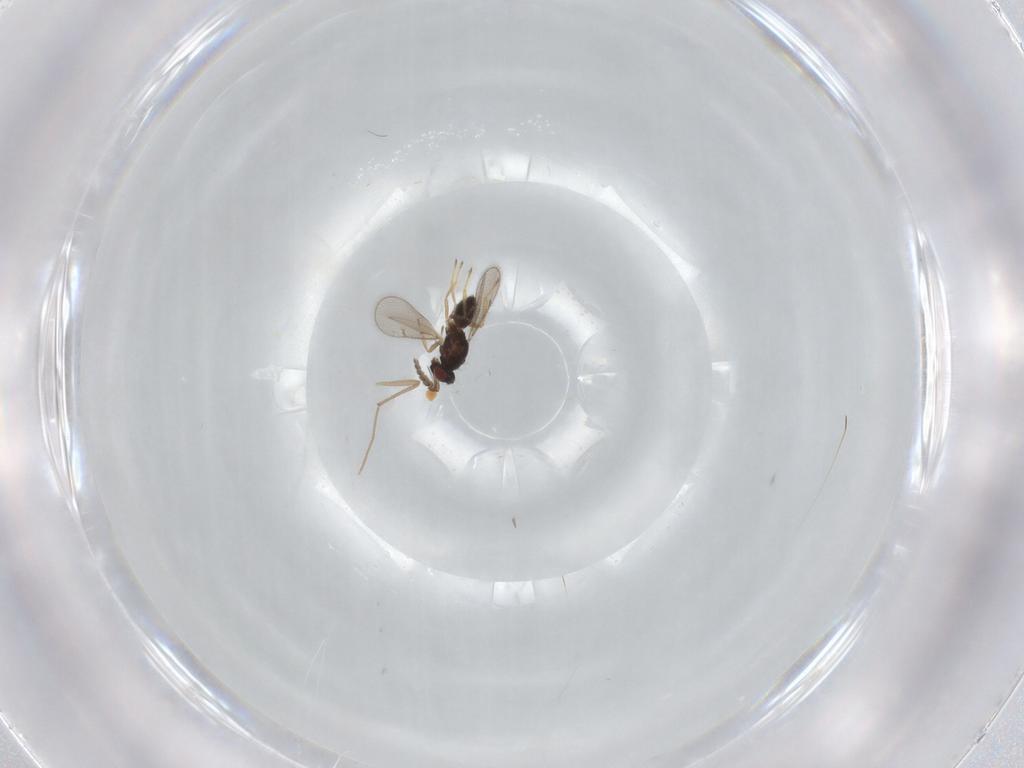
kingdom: Animalia
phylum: Arthropoda
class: Insecta
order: Hymenoptera
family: Eulophidae
